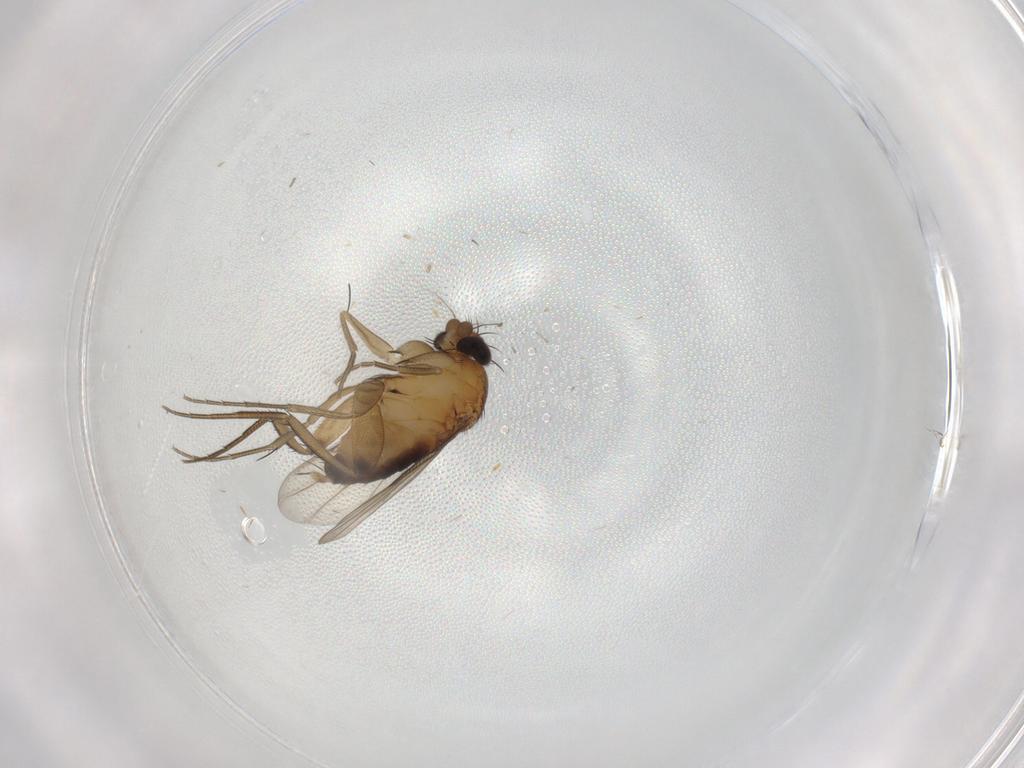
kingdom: Animalia
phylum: Arthropoda
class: Insecta
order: Diptera
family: Phoridae
